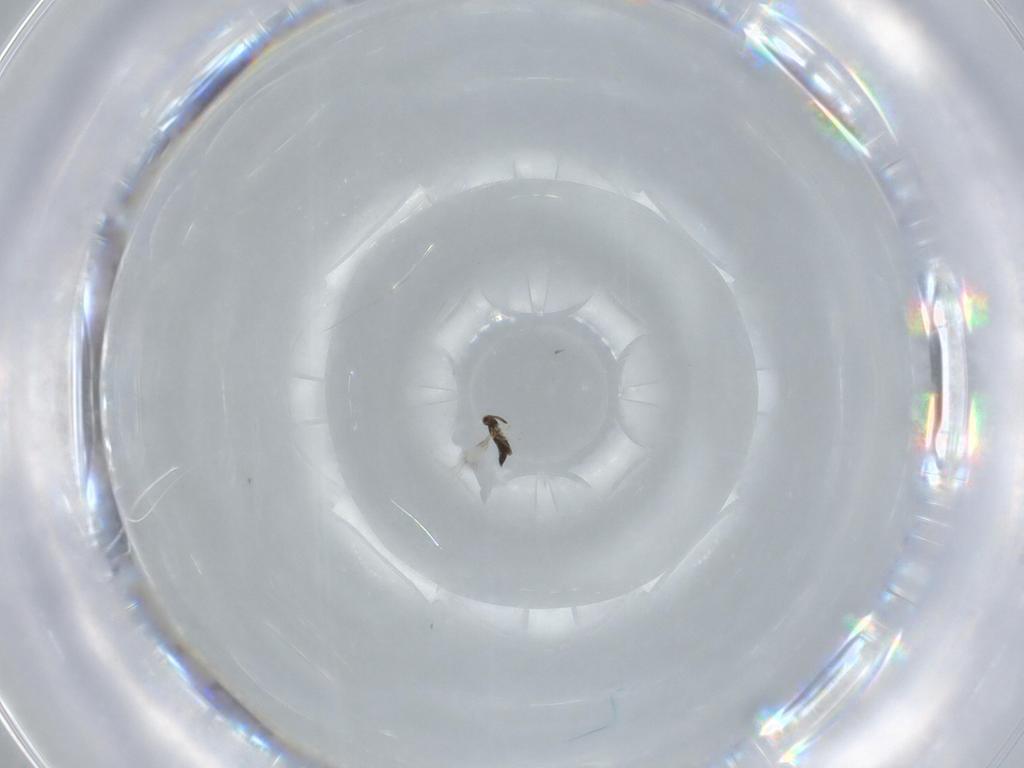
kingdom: Animalia
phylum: Arthropoda
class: Insecta
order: Hymenoptera
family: Signiphoridae
